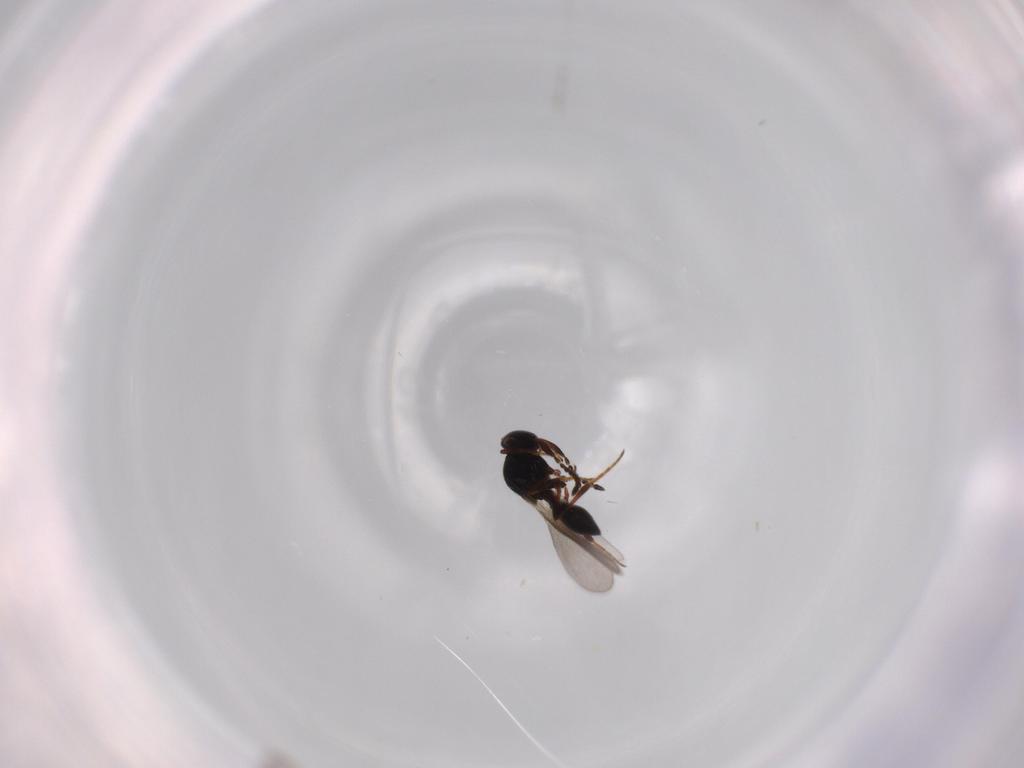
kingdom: Animalia
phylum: Arthropoda
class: Insecta
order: Hymenoptera
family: Platygastridae
